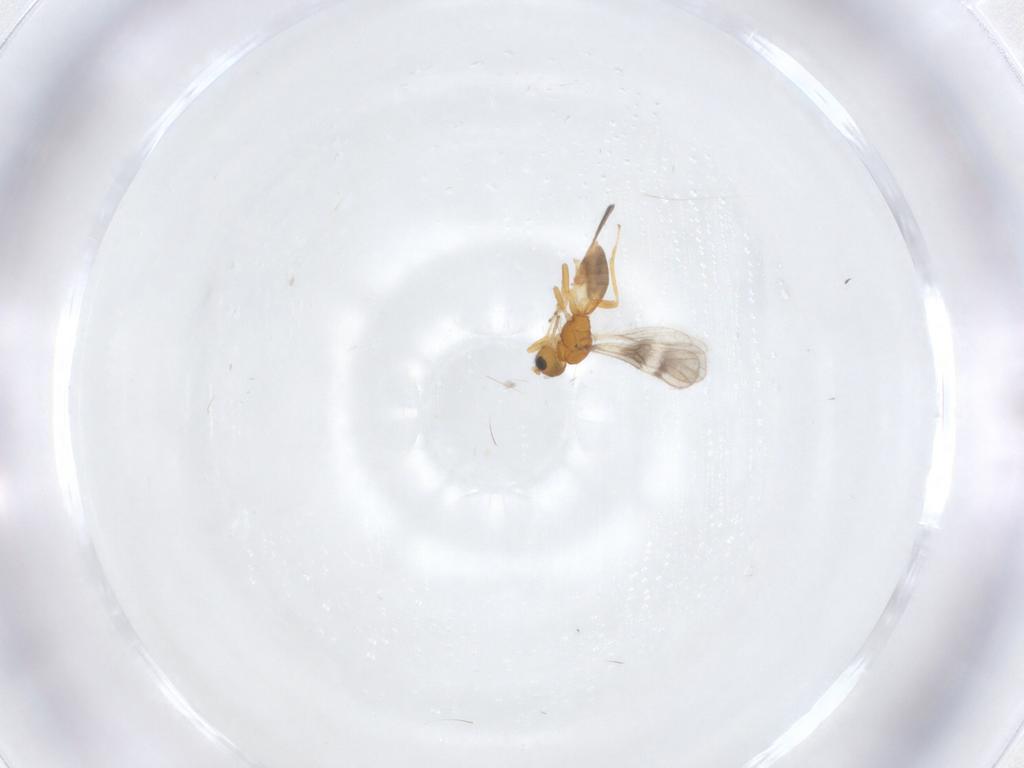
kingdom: Animalia
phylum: Arthropoda
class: Insecta
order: Hymenoptera
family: Braconidae
